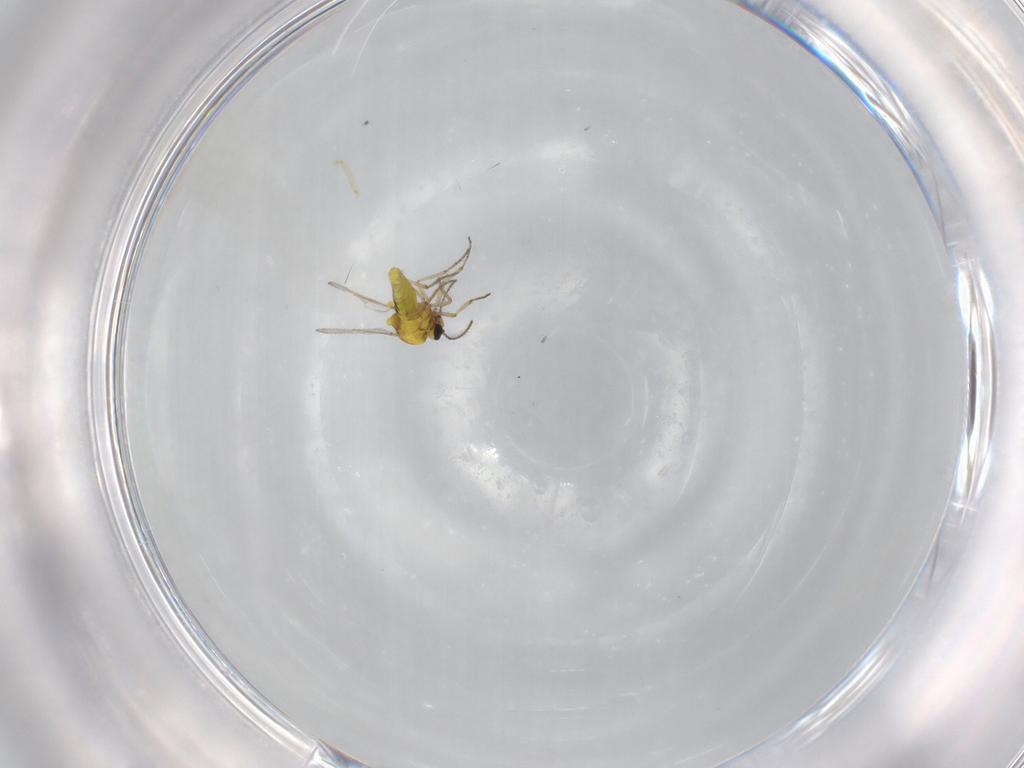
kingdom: Animalia
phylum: Arthropoda
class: Insecta
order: Diptera
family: Ceratopogonidae
